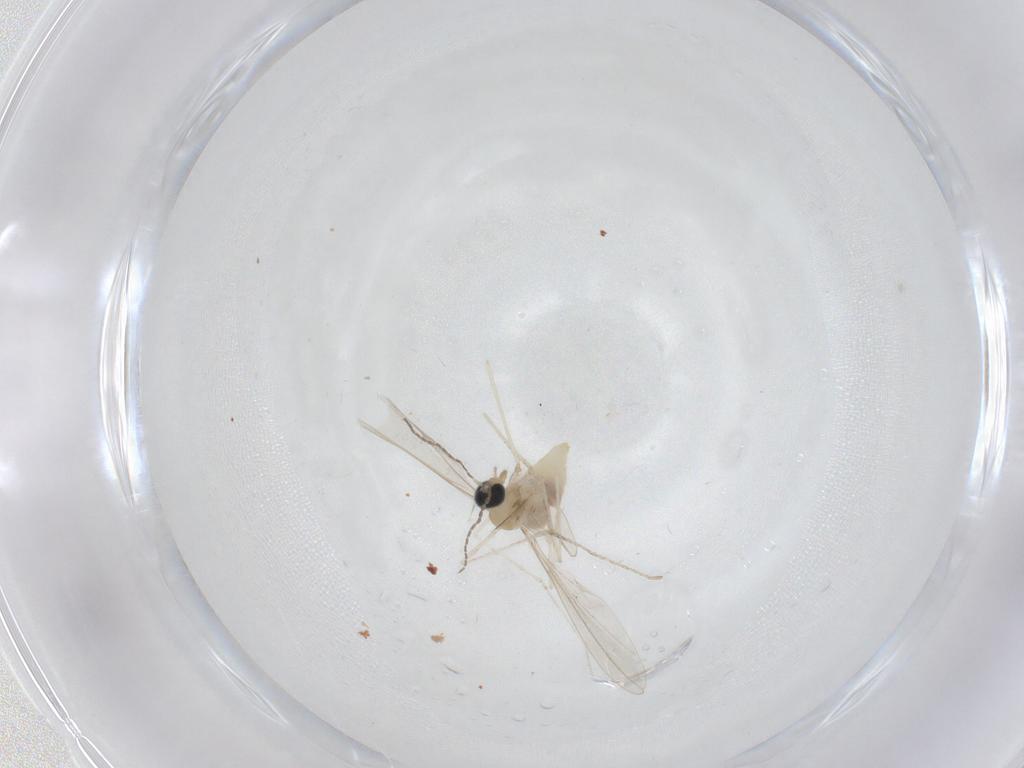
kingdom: Animalia
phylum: Arthropoda
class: Insecta
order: Diptera
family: Cecidomyiidae
